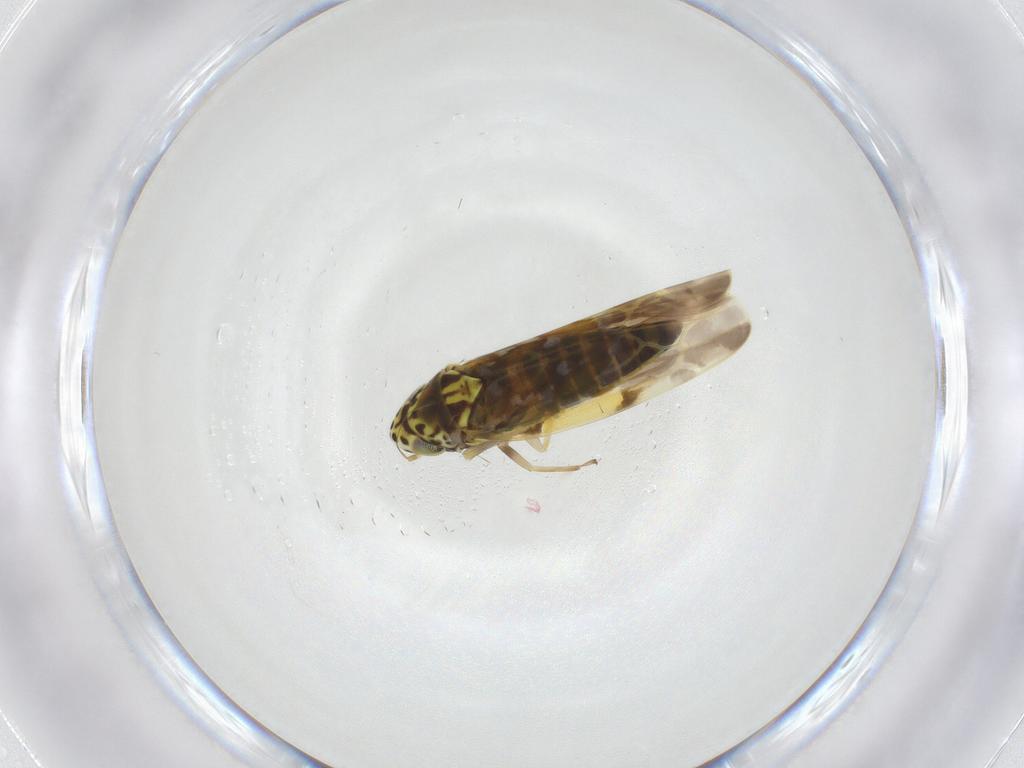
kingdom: Animalia
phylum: Arthropoda
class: Insecta
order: Hemiptera
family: Cicadellidae
